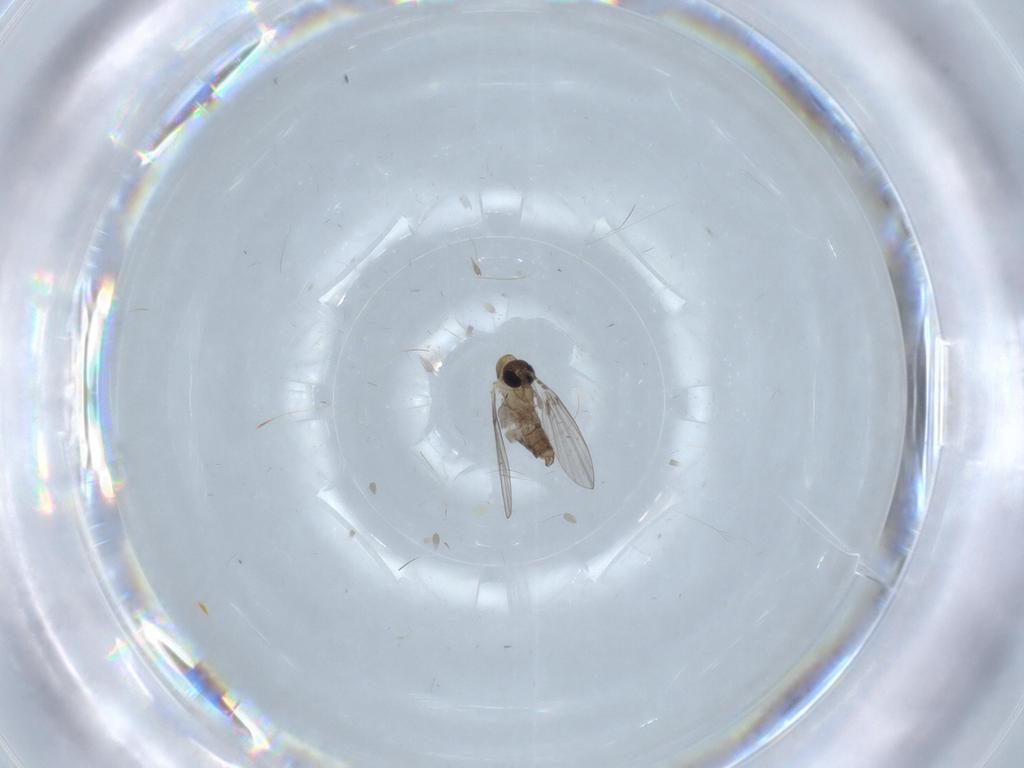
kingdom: Animalia
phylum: Arthropoda
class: Insecta
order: Diptera
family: Tabanidae
